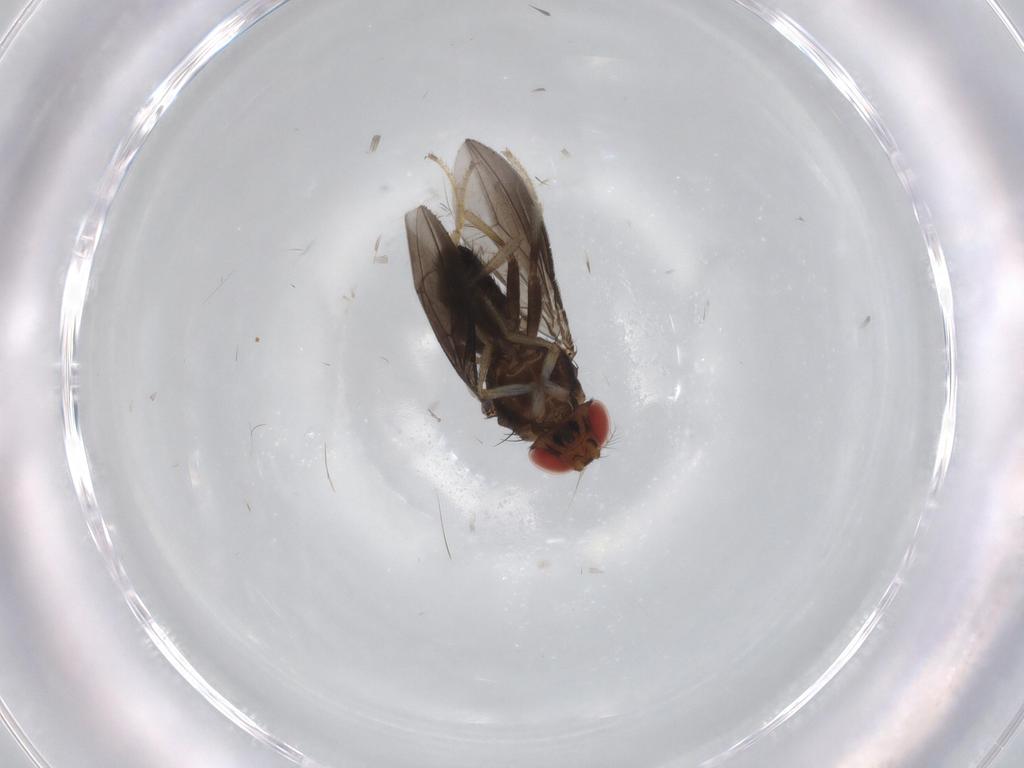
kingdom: Animalia
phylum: Arthropoda
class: Insecta
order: Diptera
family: Drosophilidae
